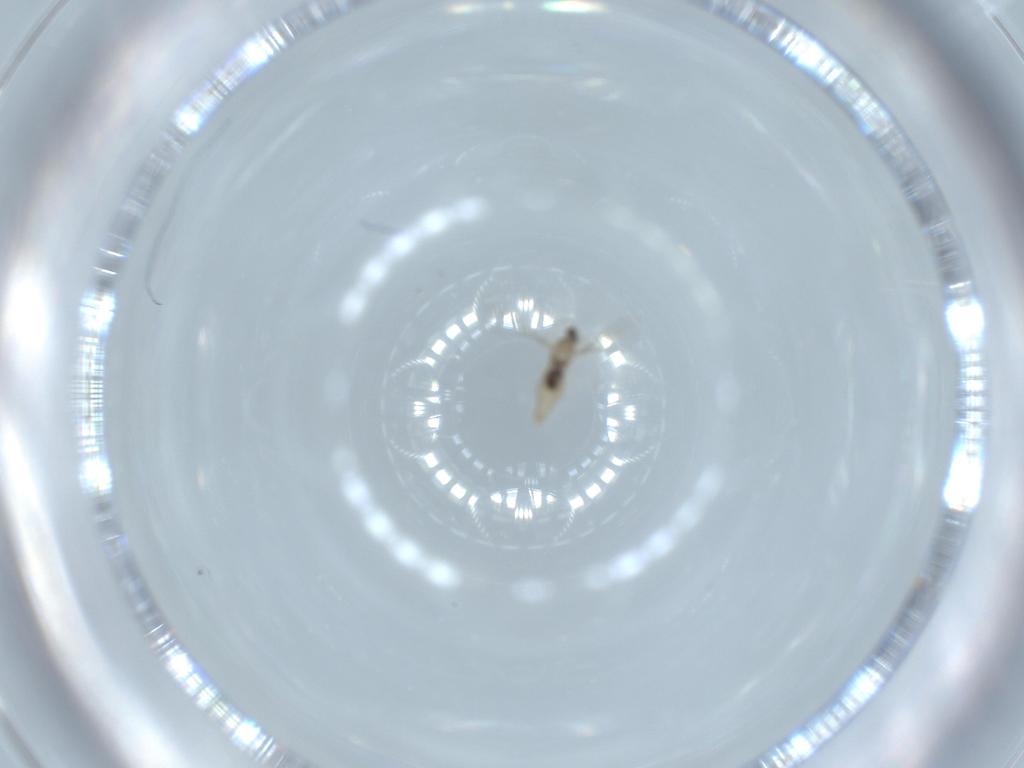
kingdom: Animalia
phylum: Arthropoda
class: Insecta
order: Diptera
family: Cecidomyiidae
